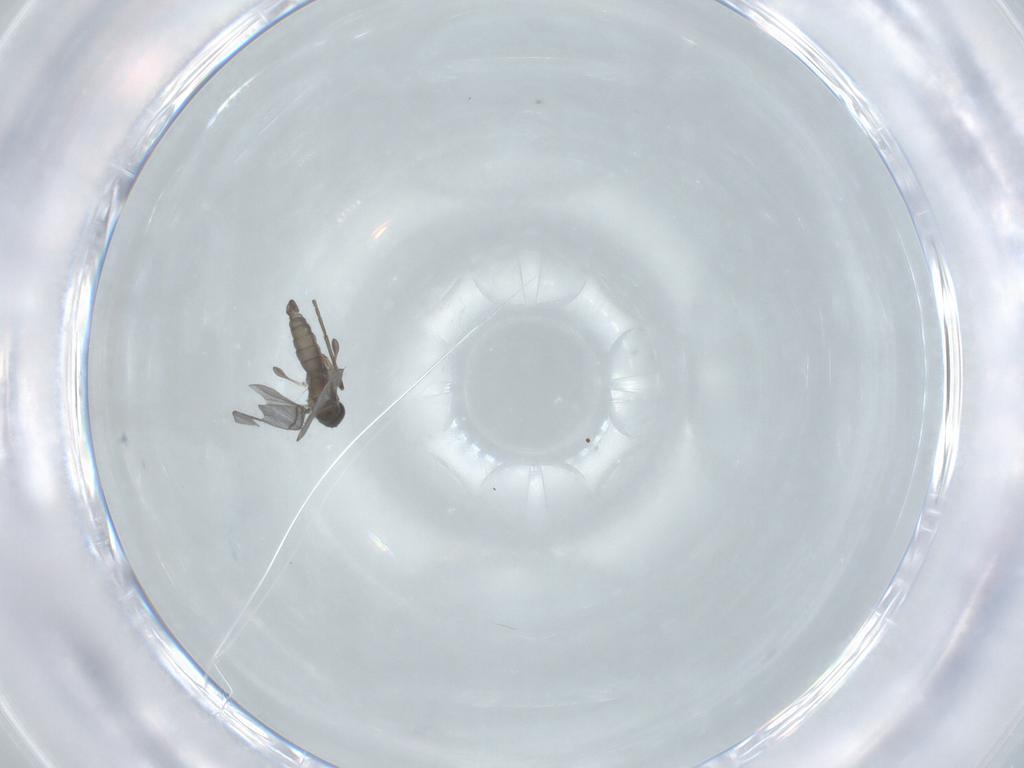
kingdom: Animalia
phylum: Arthropoda
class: Insecta
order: Diptera
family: Sciaridae
